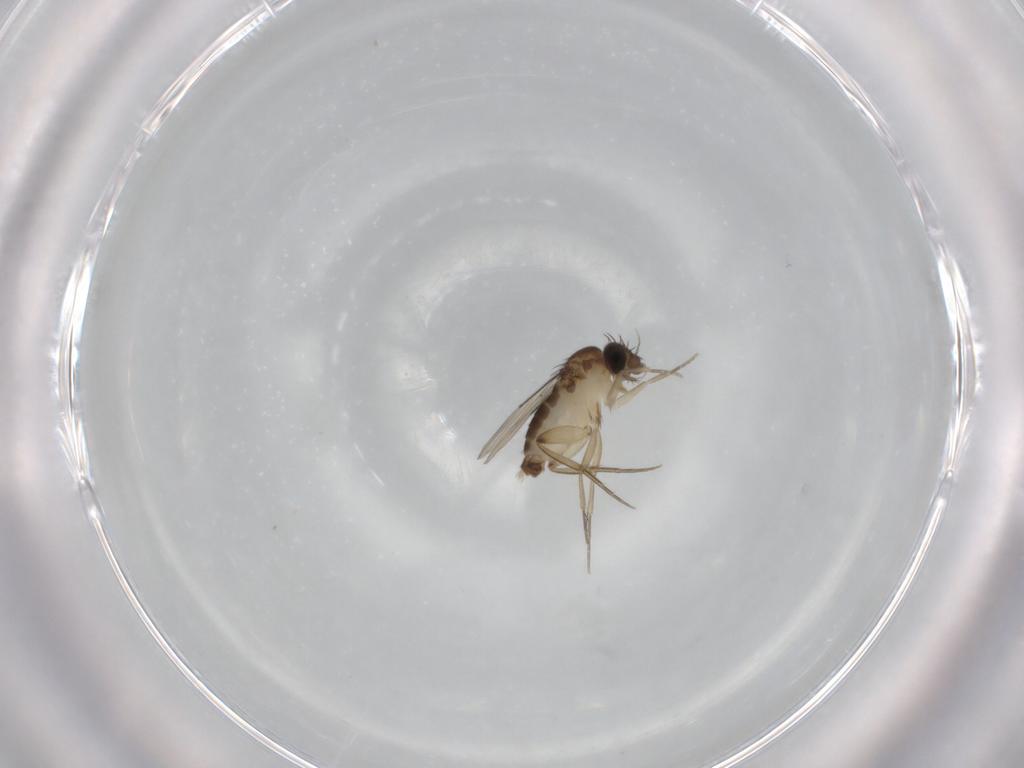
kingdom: Animalia
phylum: Arthropoda
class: Insecta
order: Diptera
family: Phoridae
